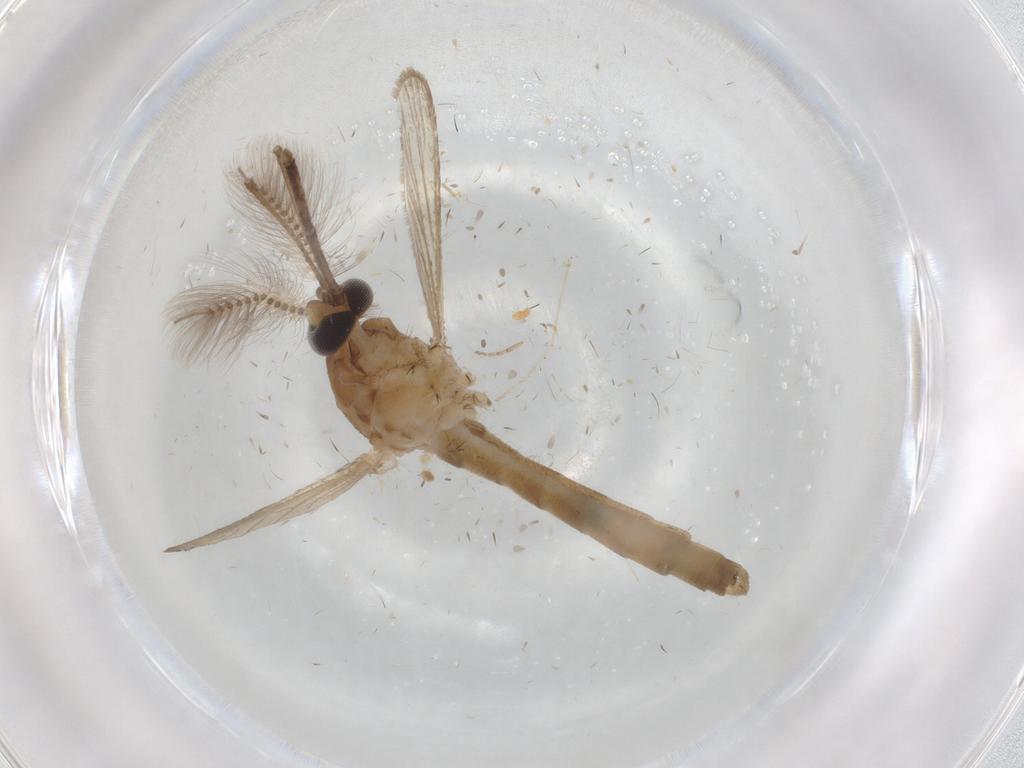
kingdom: Animalia
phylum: Arthropoda
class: Insecta
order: Diptera
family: Chloropidae
